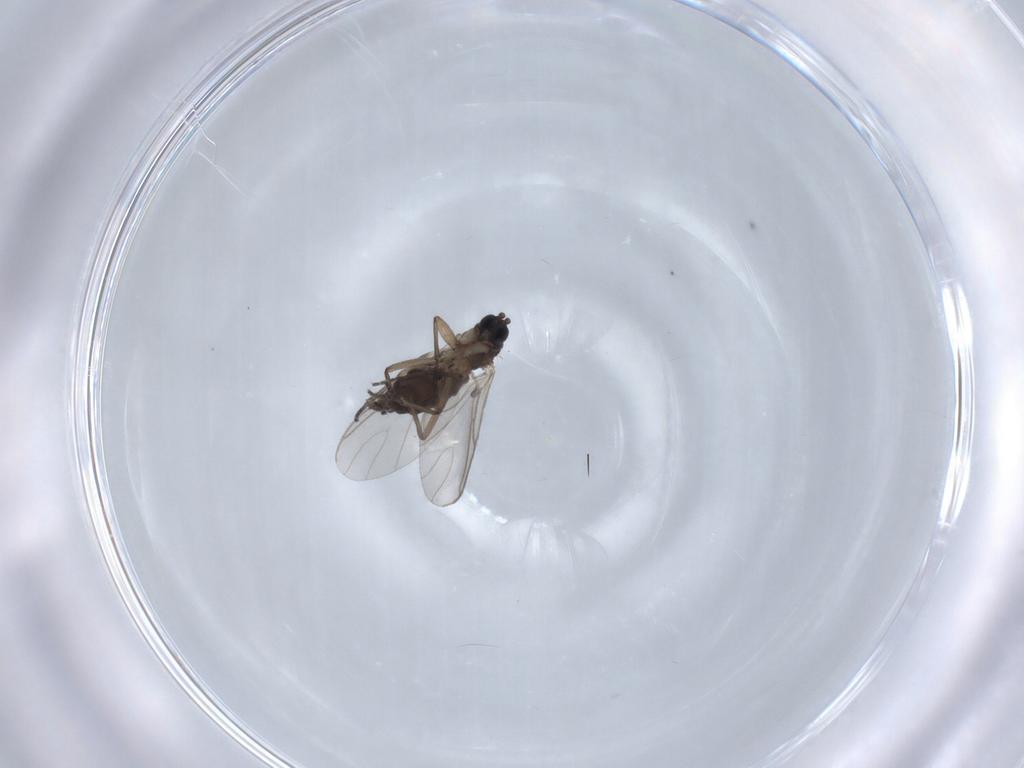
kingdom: Animalia
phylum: Arthropoda
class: Insecta
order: Diptera
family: Sciaridae
